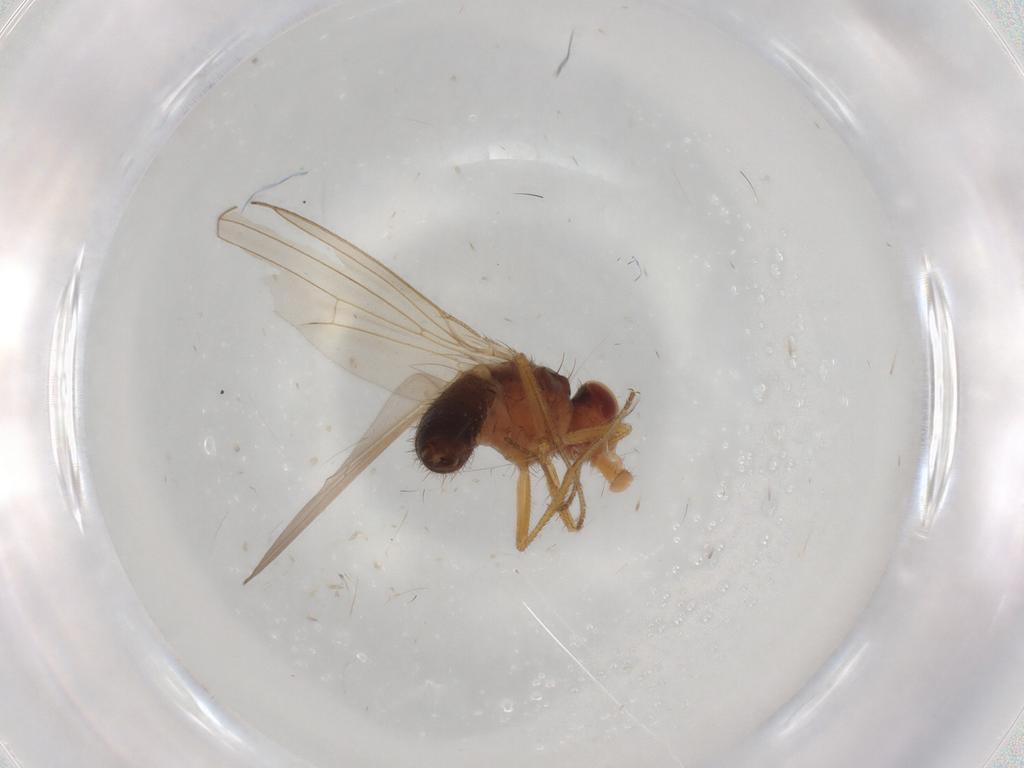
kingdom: Animalia
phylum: Arthropoda
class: Insecta
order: Diptera
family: Drosophilidae
